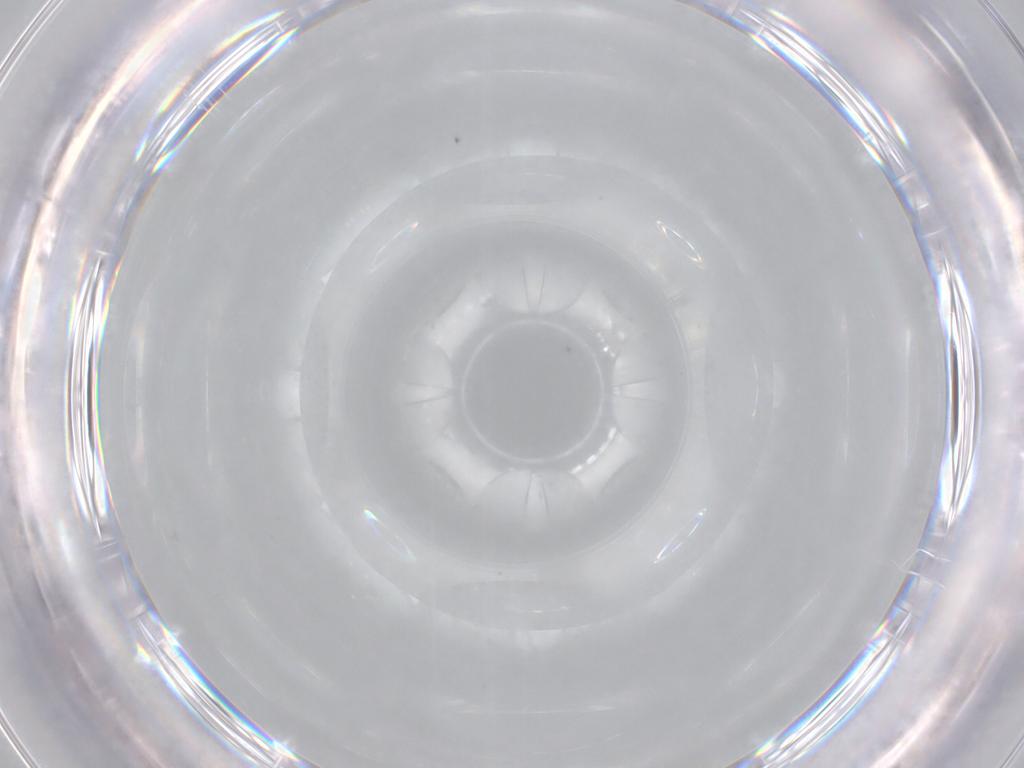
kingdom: Animalia
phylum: Arthropoda
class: Insecta
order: Blattodea
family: Ectobiidae
